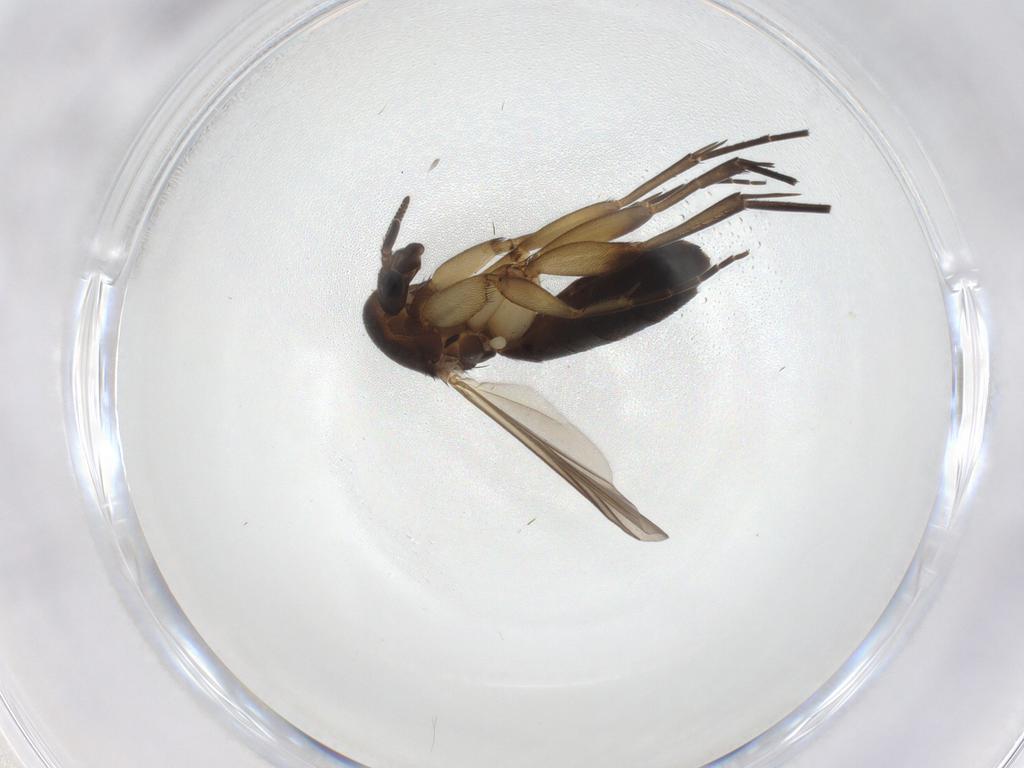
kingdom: Animalia
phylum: Arthropoda
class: Insecta
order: Diptera
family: Mycetophilidae
